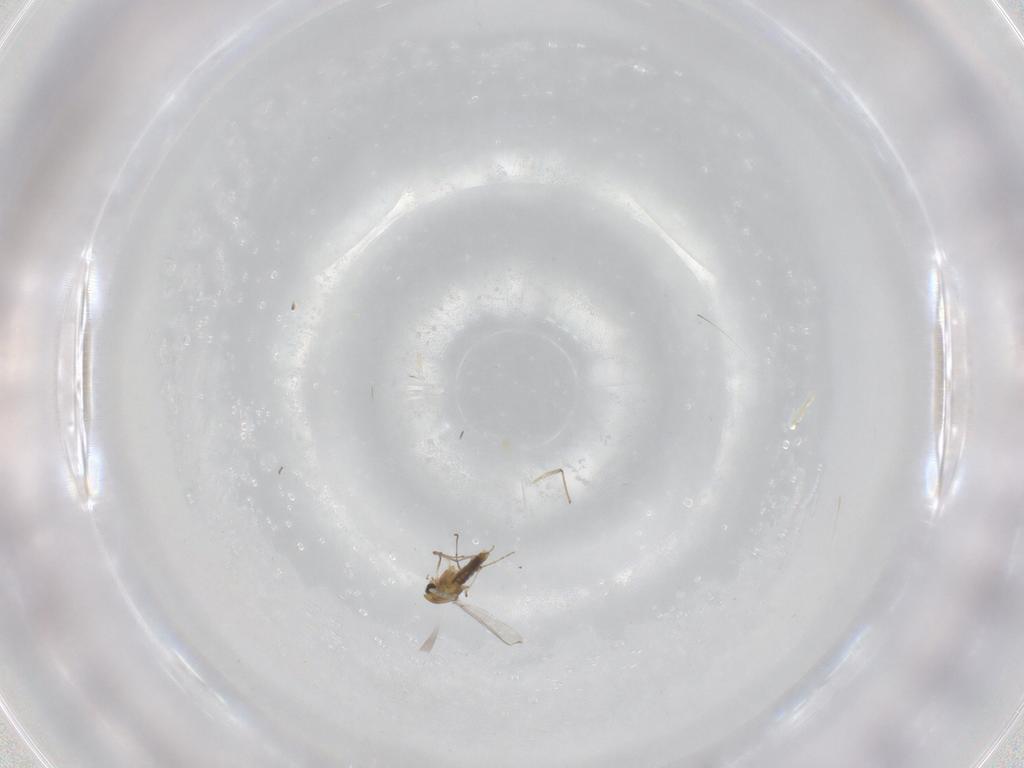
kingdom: Animalia
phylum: Arthropoda
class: Insecta
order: Diptera
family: Chironomidae
